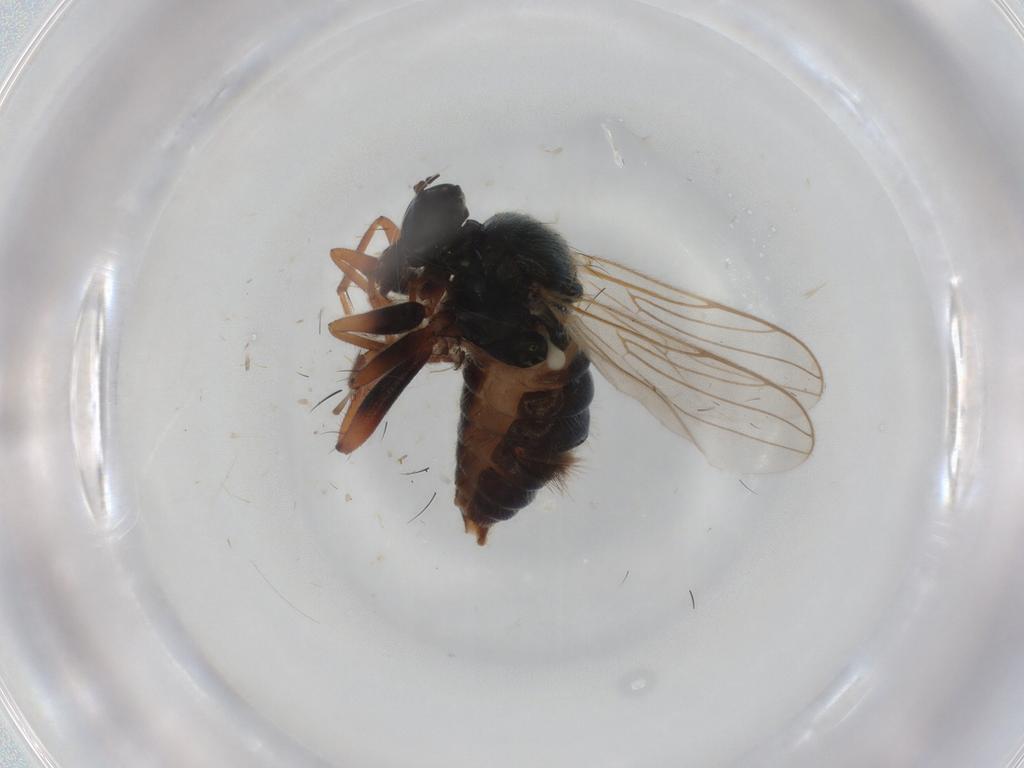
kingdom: Animalia
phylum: Arthropoda
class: Insecta
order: Diptera
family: Hybotidae
